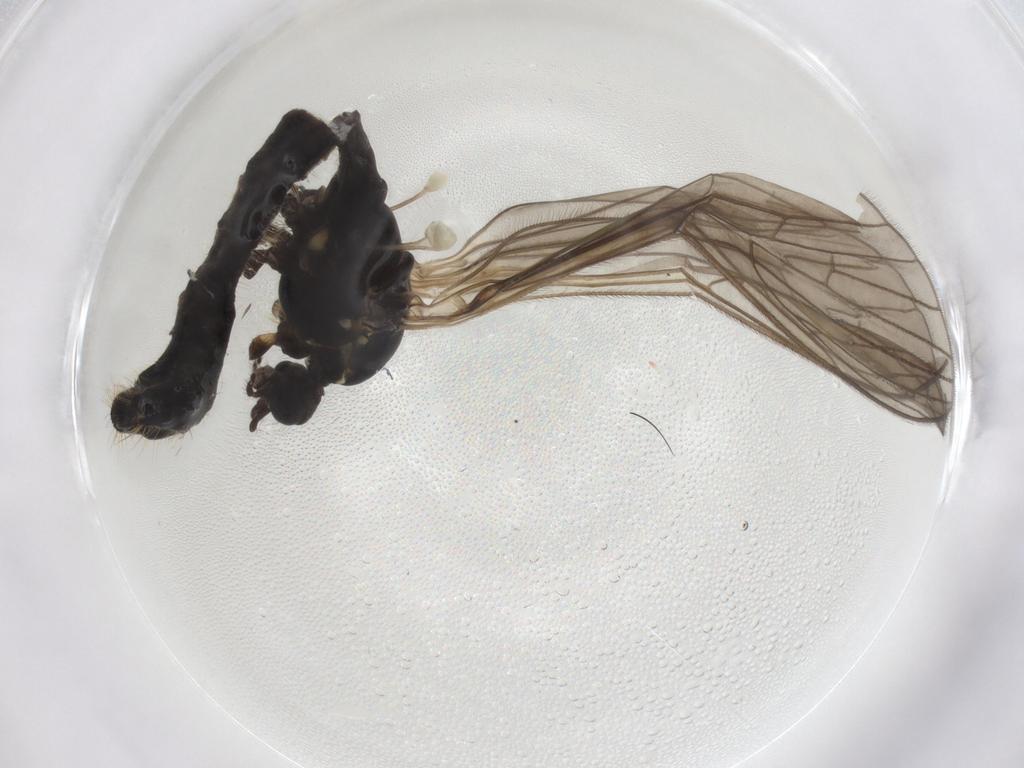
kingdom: Animalia
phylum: Arthropoda
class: Insecta
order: Diptera
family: Limoniidae
